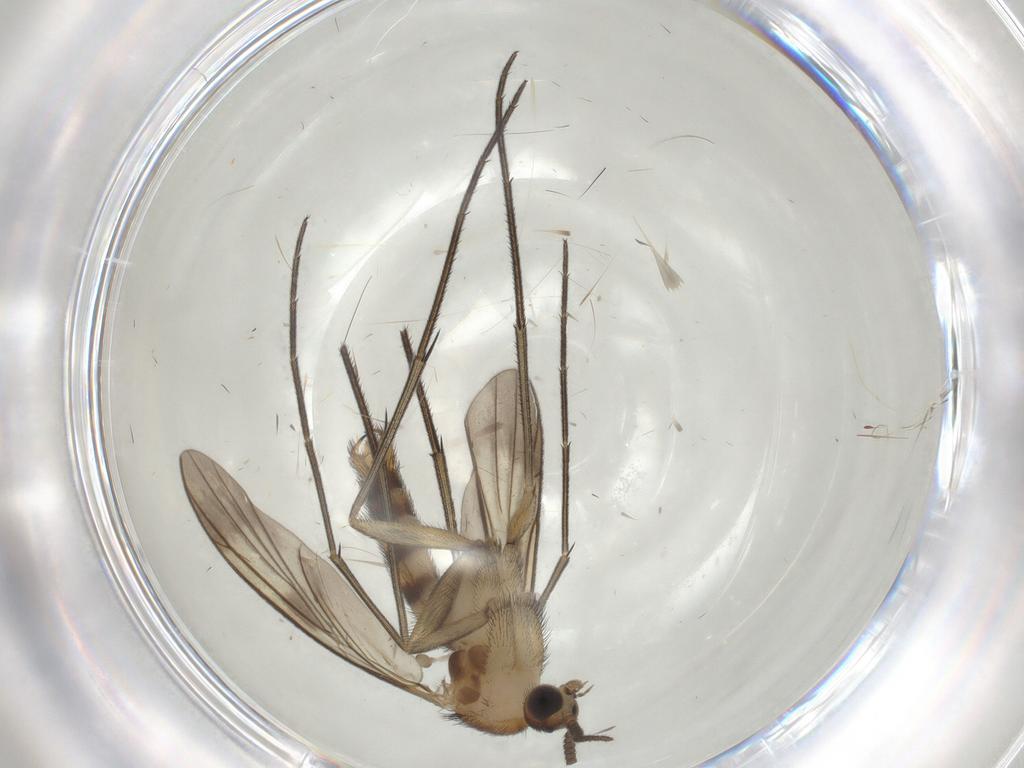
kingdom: Animalia
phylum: Arthropoda
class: Insecta
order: Diptera
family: Keroplatidae
